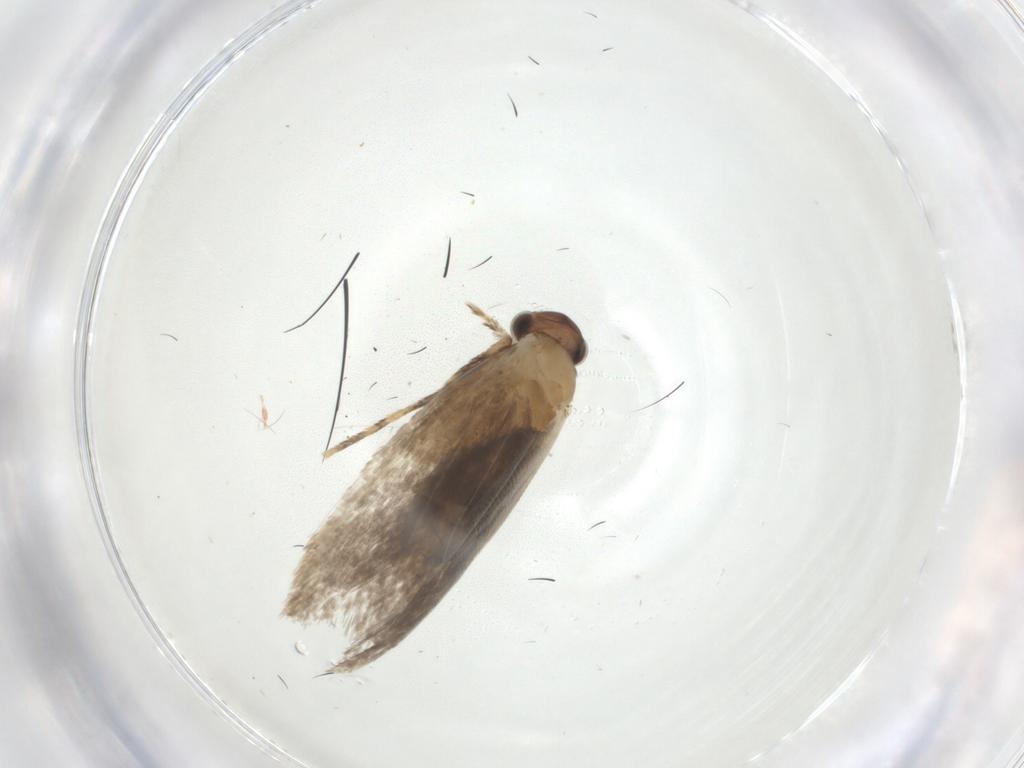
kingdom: Animalia
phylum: Arthropoda
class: Insecta
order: Lepidoptera
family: Dryadaulidae
